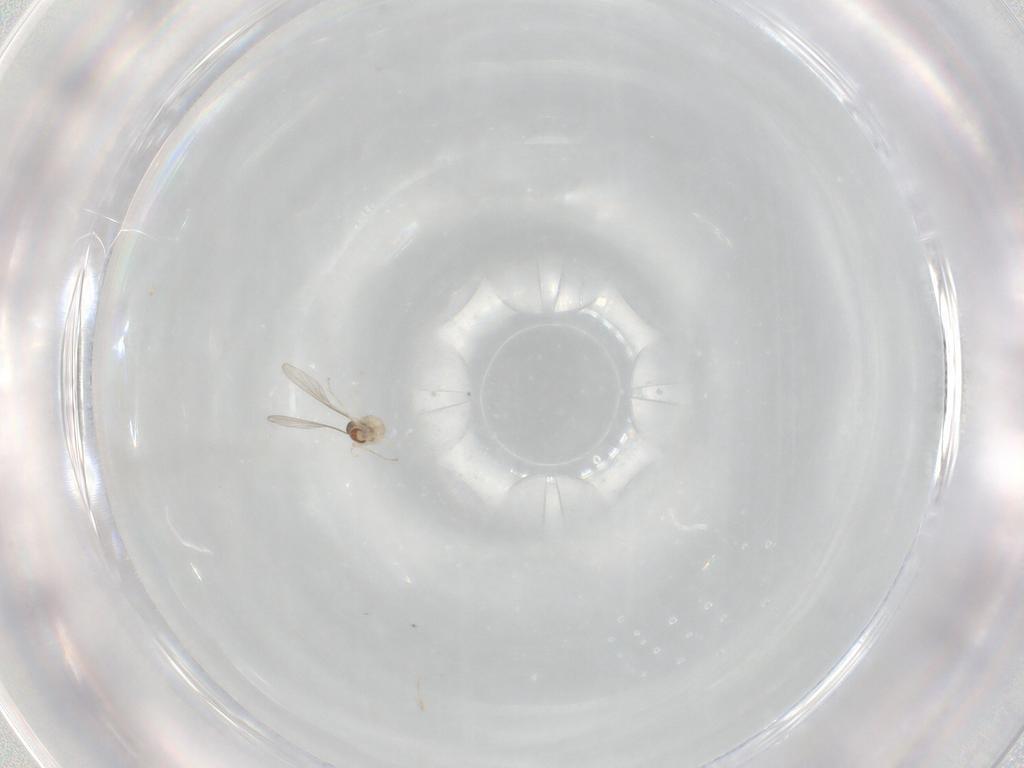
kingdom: Animalia
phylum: Arthropoda
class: Insecta
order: Diptera
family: Cecidomyiidae
